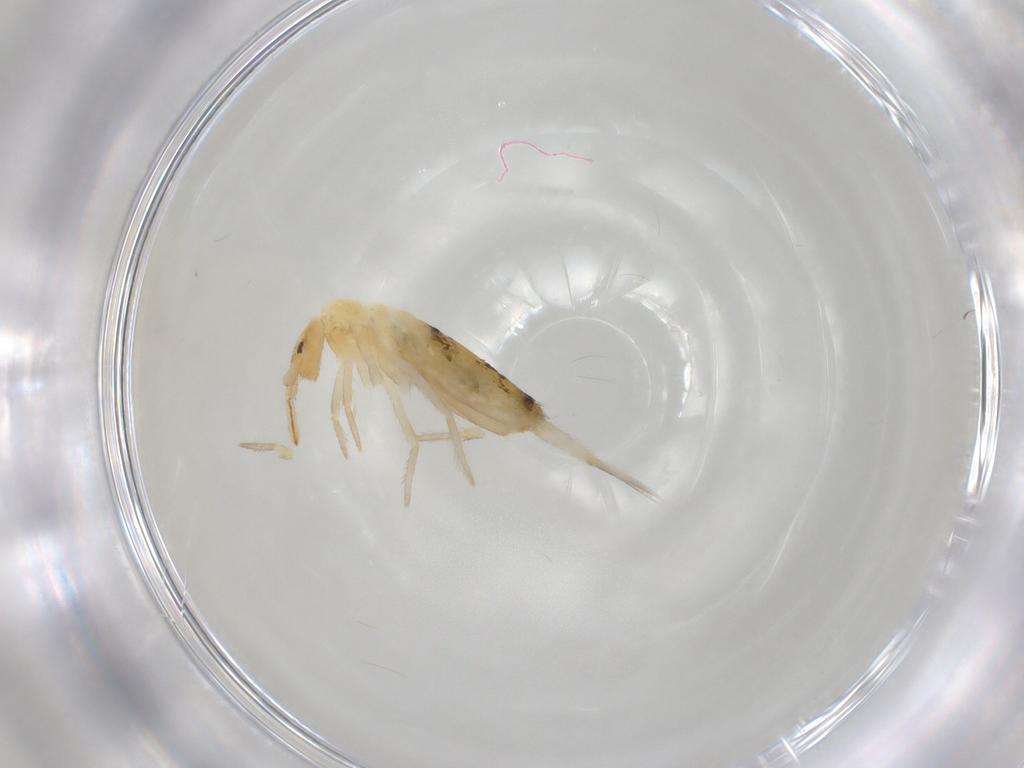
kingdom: Animalia
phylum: Arthropoda
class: Collembola
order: Entomobryomorpha
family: Entomobryidae
